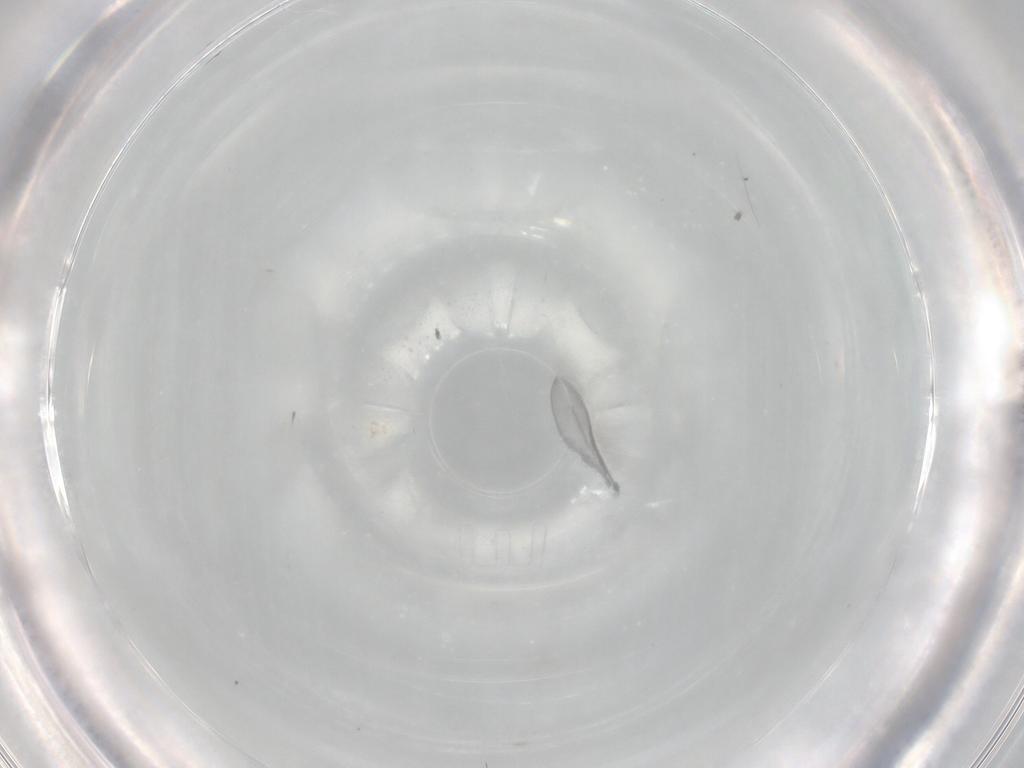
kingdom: Animalia
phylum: Arthropoda
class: Insecta
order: Diptera
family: Cecidomyiidae
